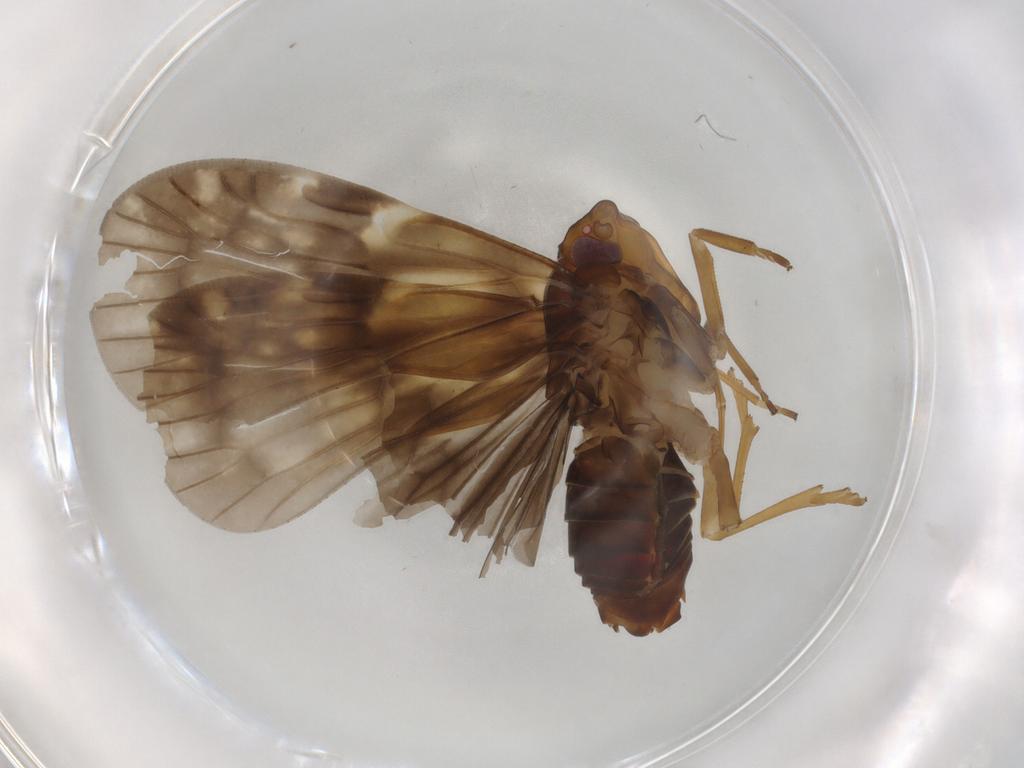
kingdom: Animalia
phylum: Arthropoda
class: Insecta
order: Hemiptera
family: Cixiidae
